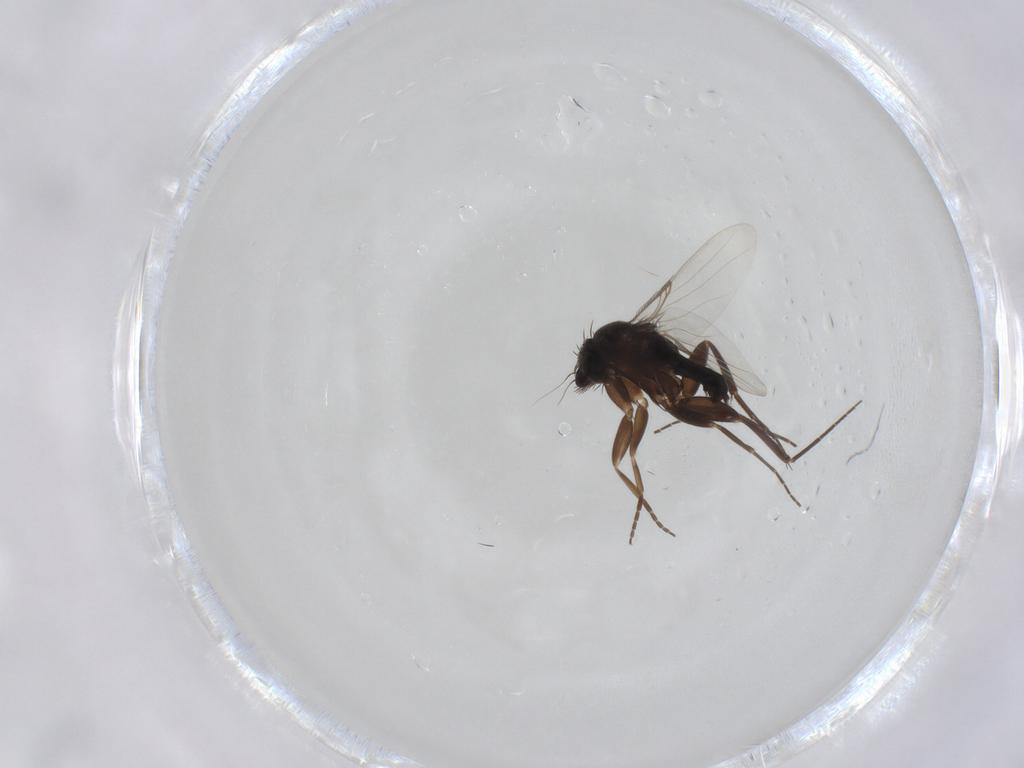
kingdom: Animalia
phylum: Arthropoda
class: Insecta
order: Diptera
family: Phoridae
